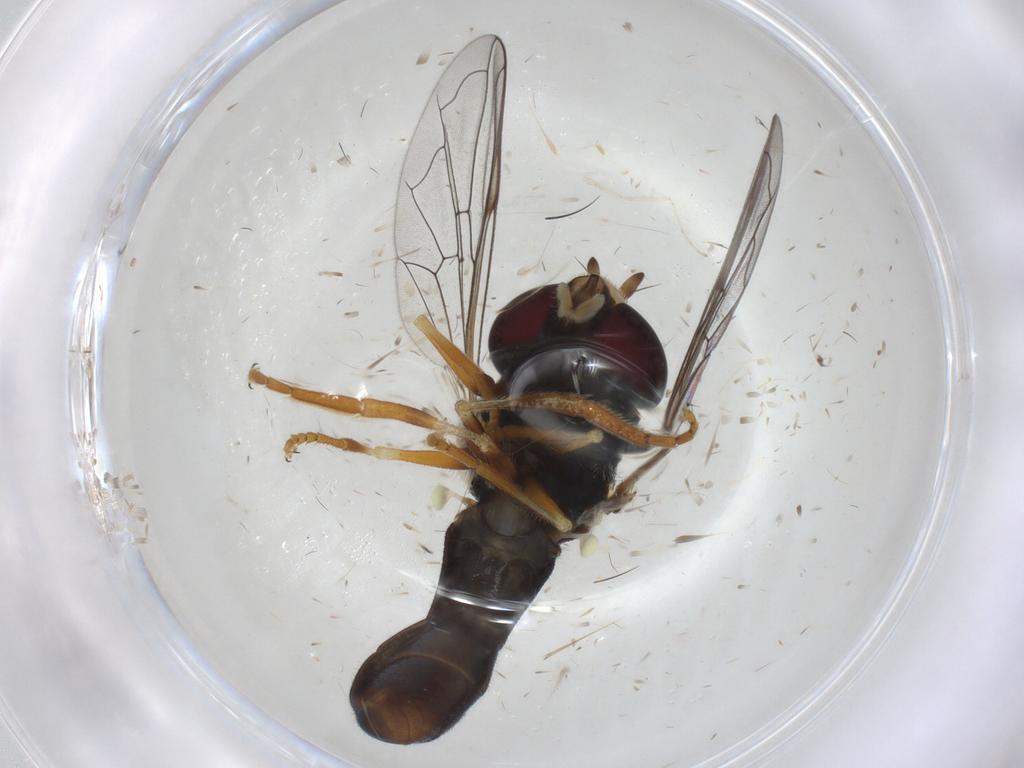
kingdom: Animalia
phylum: Arthropoda
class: Insecta
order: Diptera
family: Syrphidae
